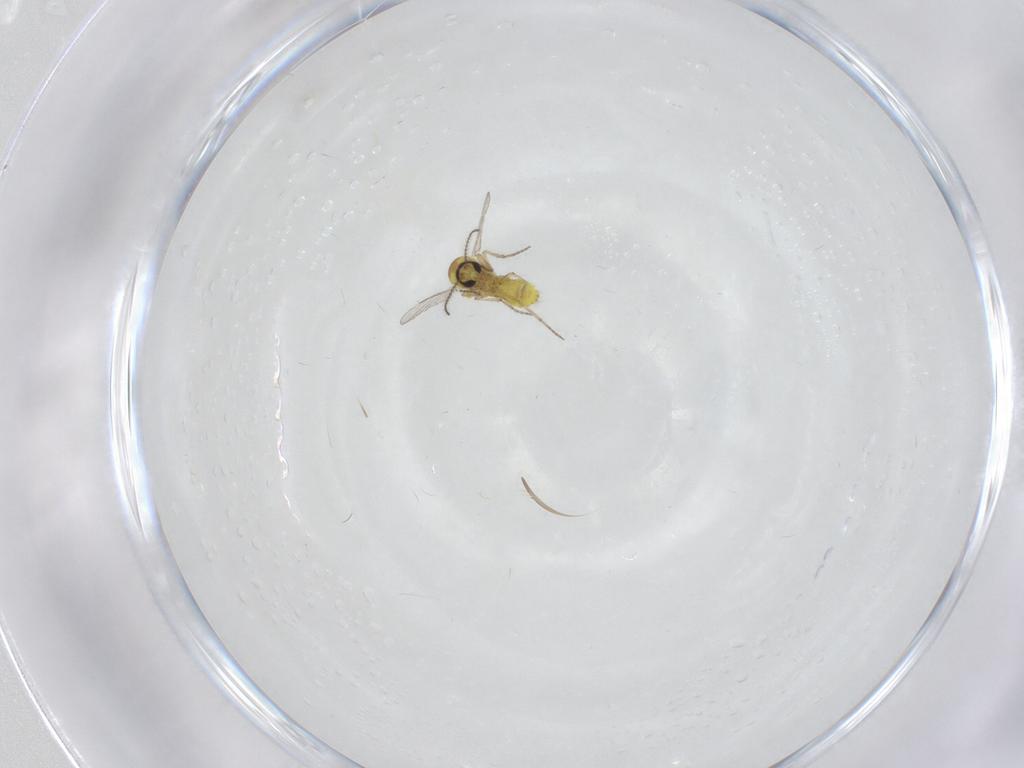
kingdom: Animalia
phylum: Arthropoda
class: Insecta
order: Diptera
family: Ceratopogonidae
